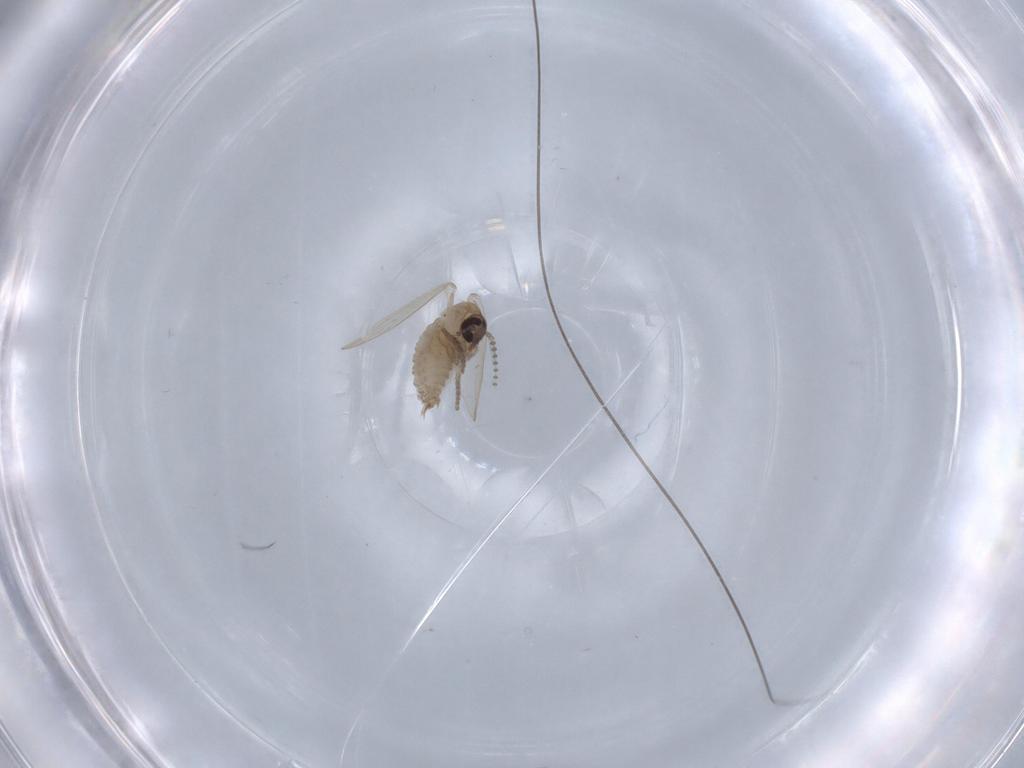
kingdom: Animalia
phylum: Arthropoda
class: Insecta
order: Diptera
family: Psychodidae
